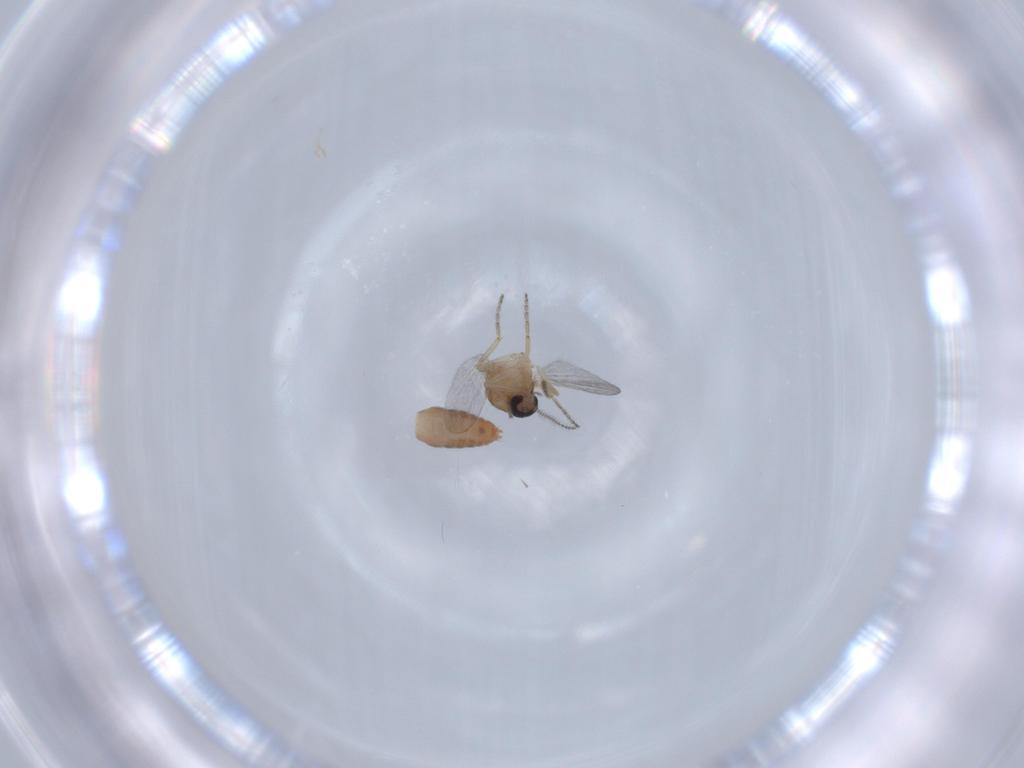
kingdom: Animalia
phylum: Arthropoda
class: Insecta
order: Diptera
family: Ceratopogonidae
